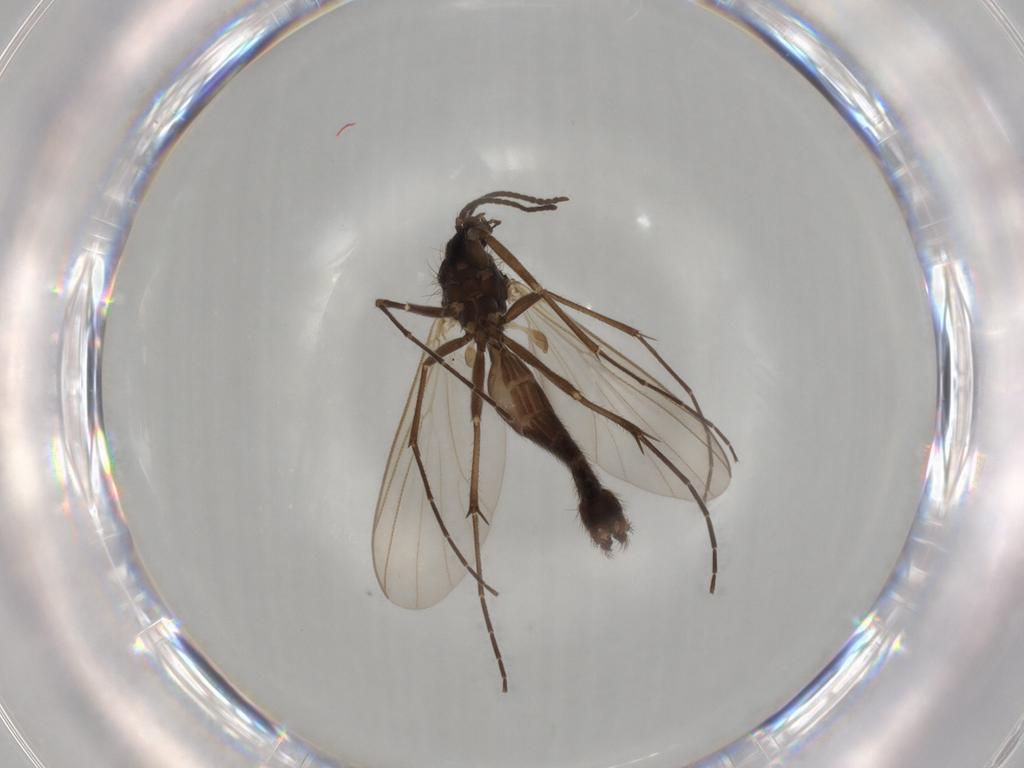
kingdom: Animalia
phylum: Arthropoda
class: Insecta
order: Diptera
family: Mycetophilidae
